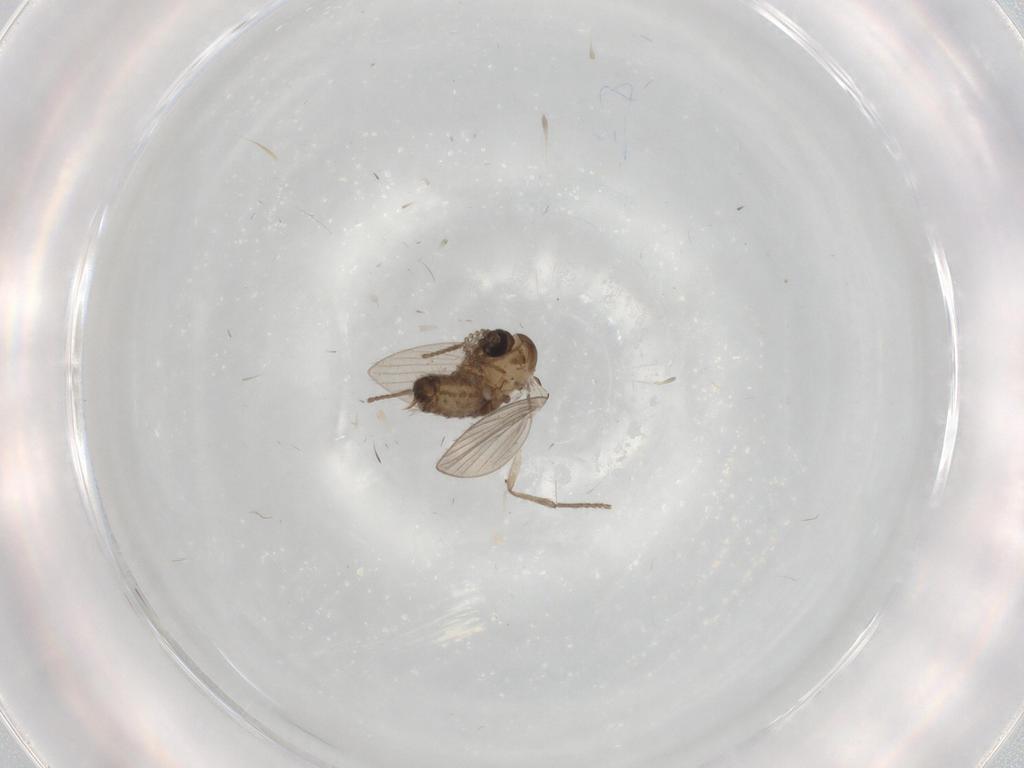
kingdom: Animalia
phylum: Arthropoda
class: Insecta
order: Diptera
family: Psychodidae
